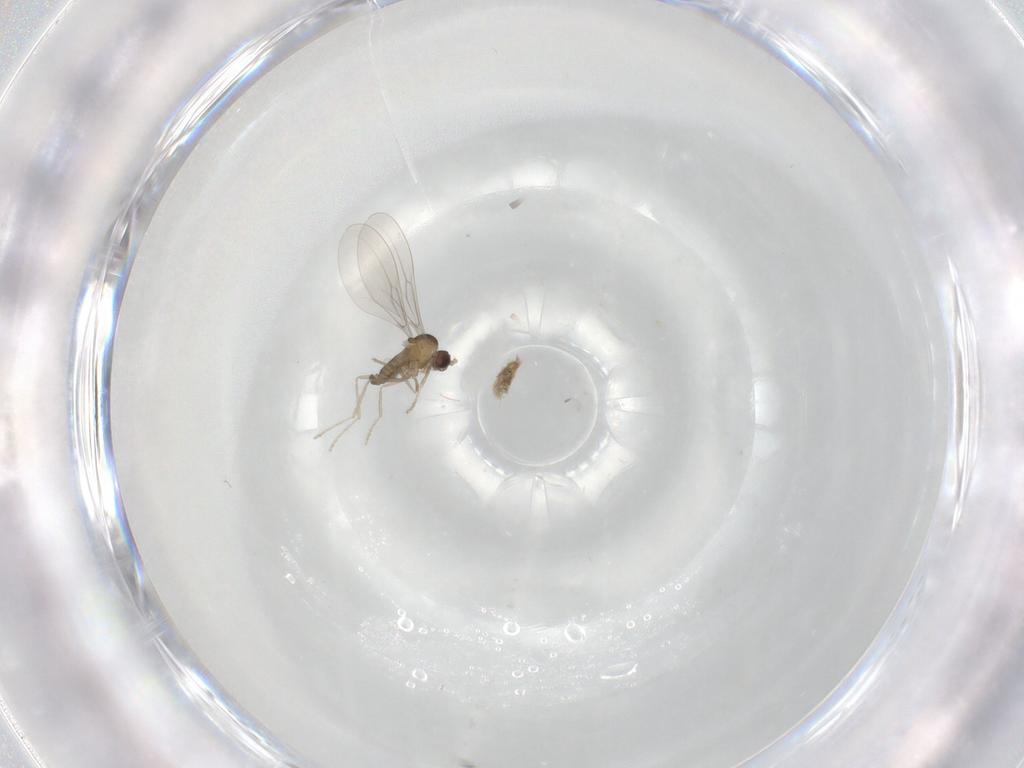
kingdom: Animalia
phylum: Arthropoda
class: Insecta
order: Diptera
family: Cecidomyiidae
